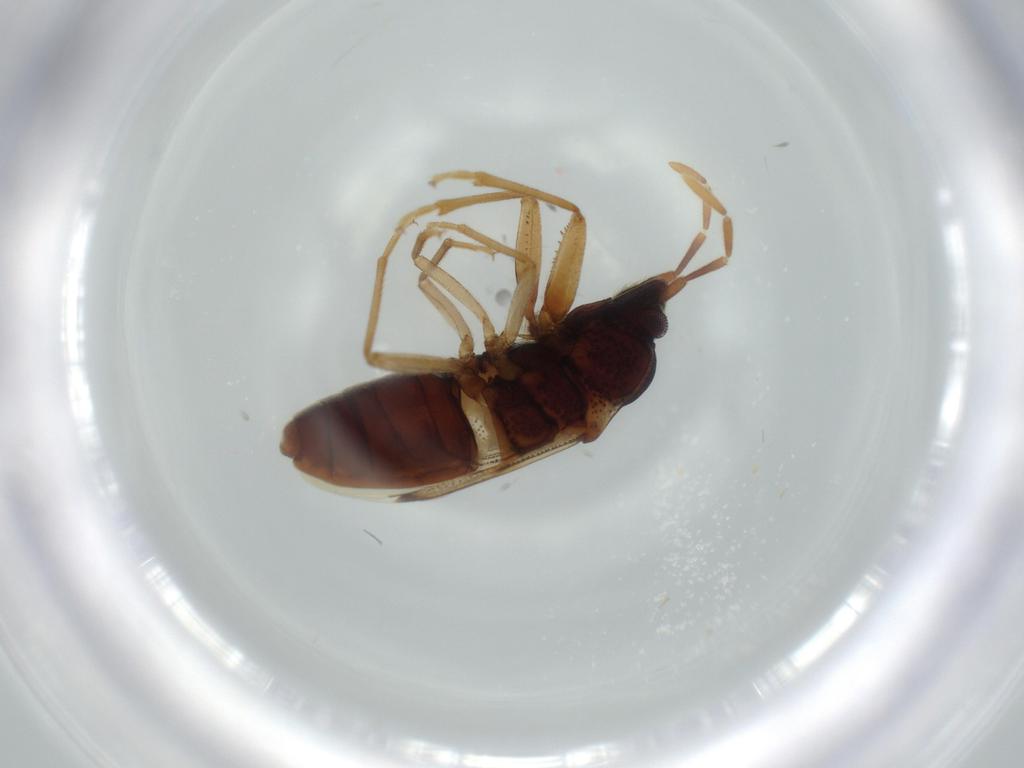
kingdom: Animalia
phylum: Arthropoda
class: Insecta
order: Hemiptera
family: Rhyparochromidae
